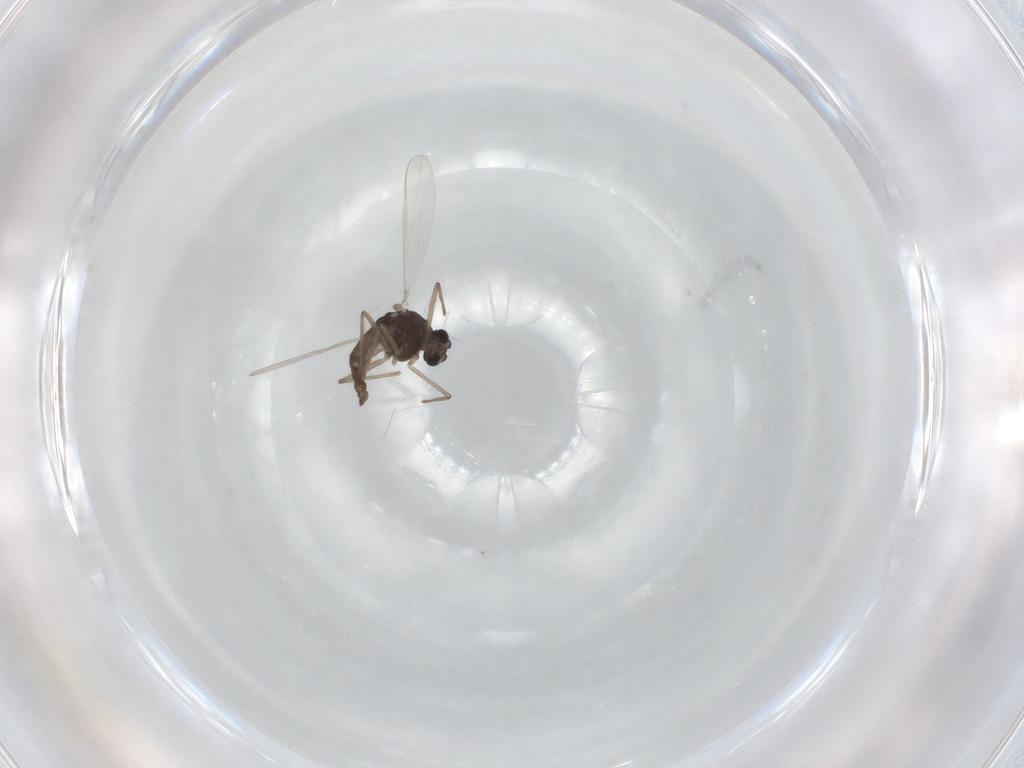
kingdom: Animalia
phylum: Arthropoda
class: Insecta
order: Diptera
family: Chironomidae
